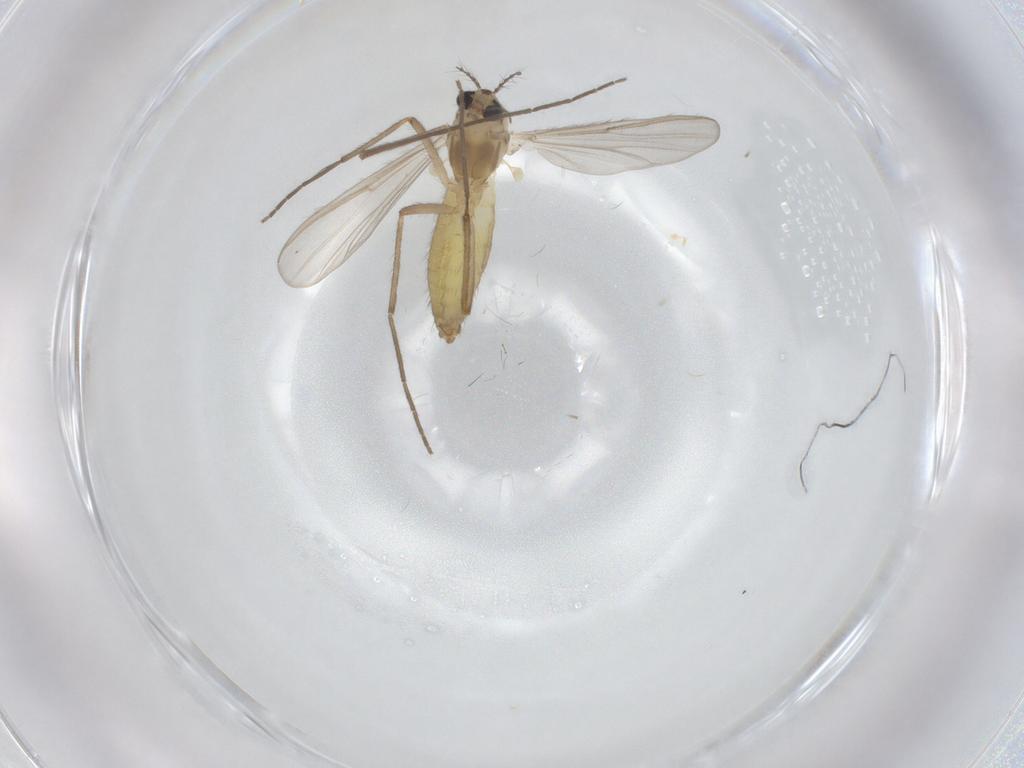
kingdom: Animalia
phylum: Arthropoda
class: Insecta
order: Diptera
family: Chironomidae
